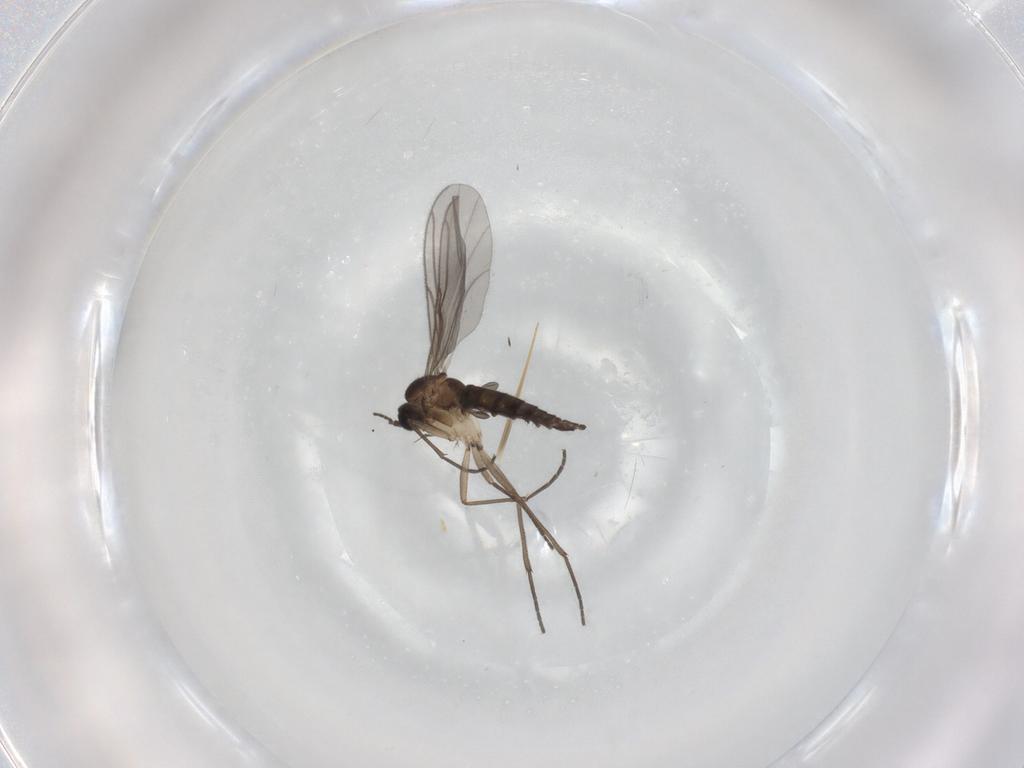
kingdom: Animalia
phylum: Arthropoda
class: Insecta
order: Diptera
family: Sciaridae
